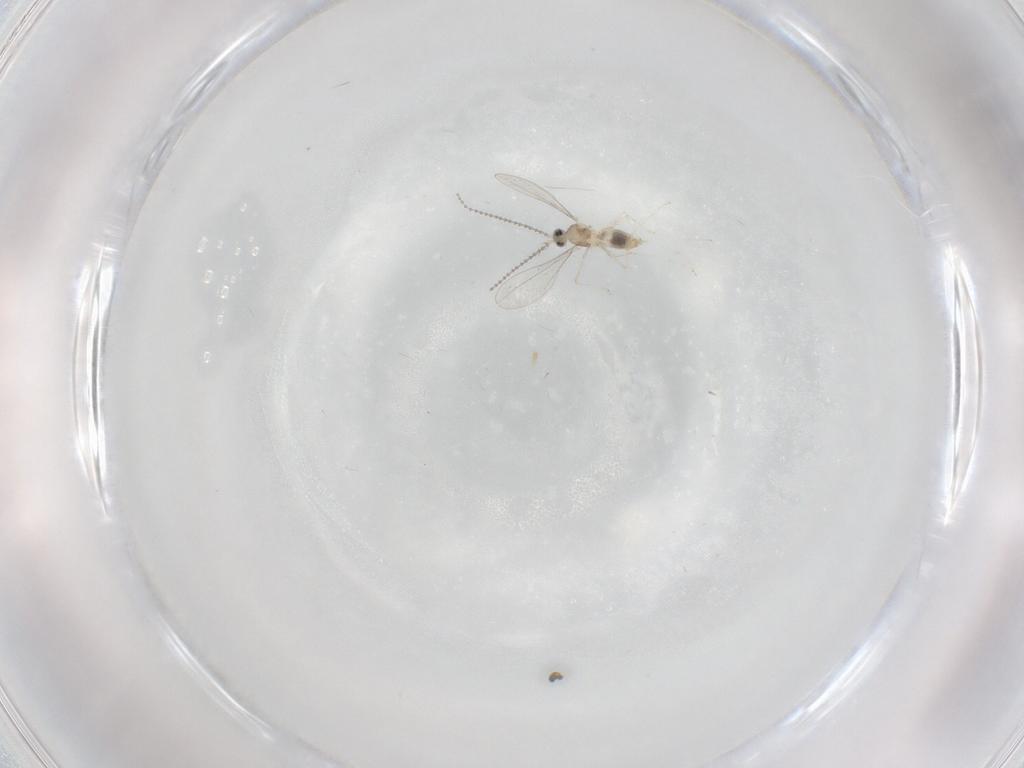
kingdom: Animalia
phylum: Arthropoda
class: Insecta
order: Diptera
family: Cecidomyiidae
